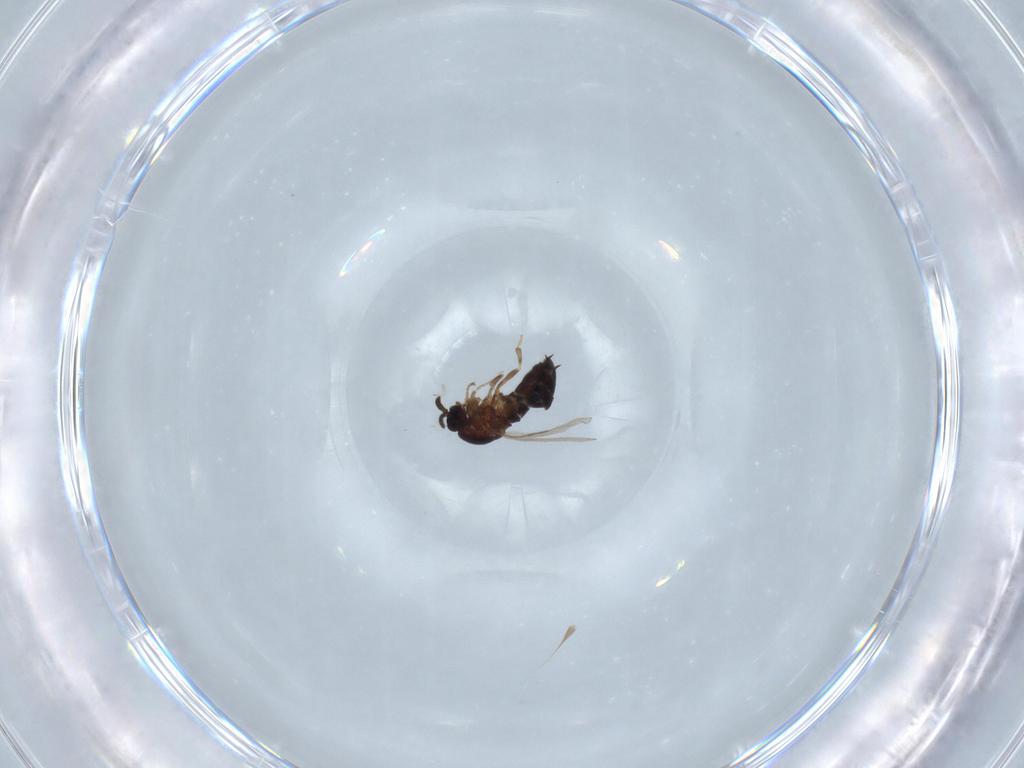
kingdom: Animalia
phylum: Arthropoda
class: Insecta
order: Diptera
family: Scatopsidae
